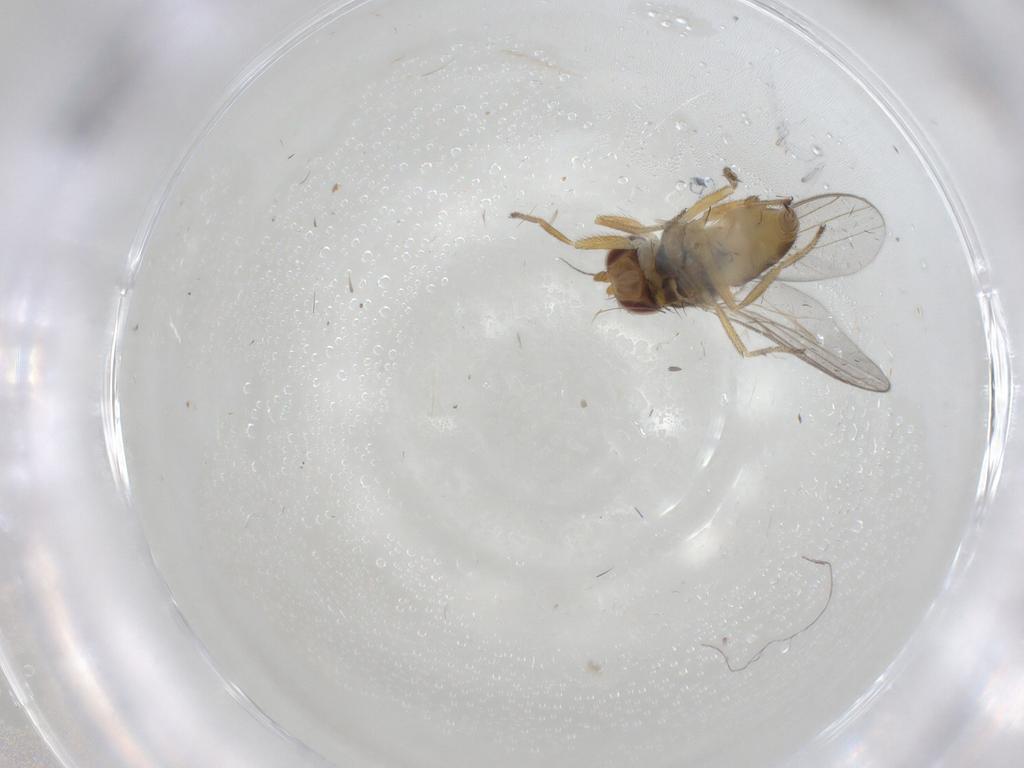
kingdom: Animalia
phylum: Arthropoda
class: Insecta
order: Diptera
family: Chloropidae
